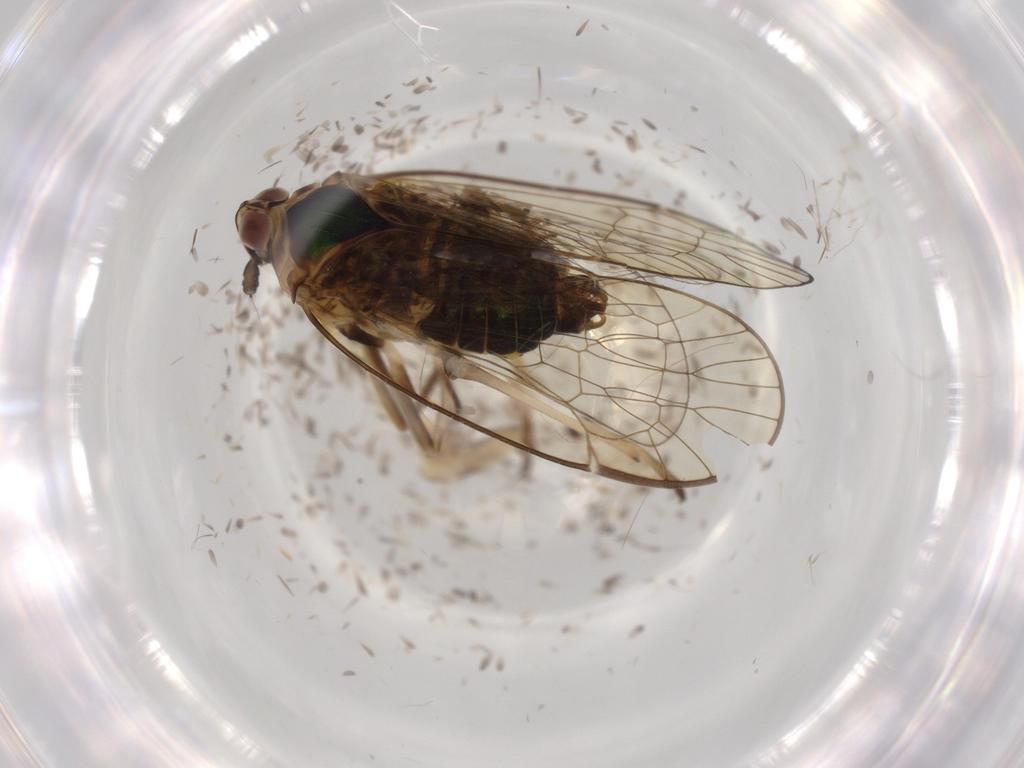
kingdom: Animalia
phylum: Arthropoda
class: Insecta
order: Hemiptera
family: Kinnaridae
